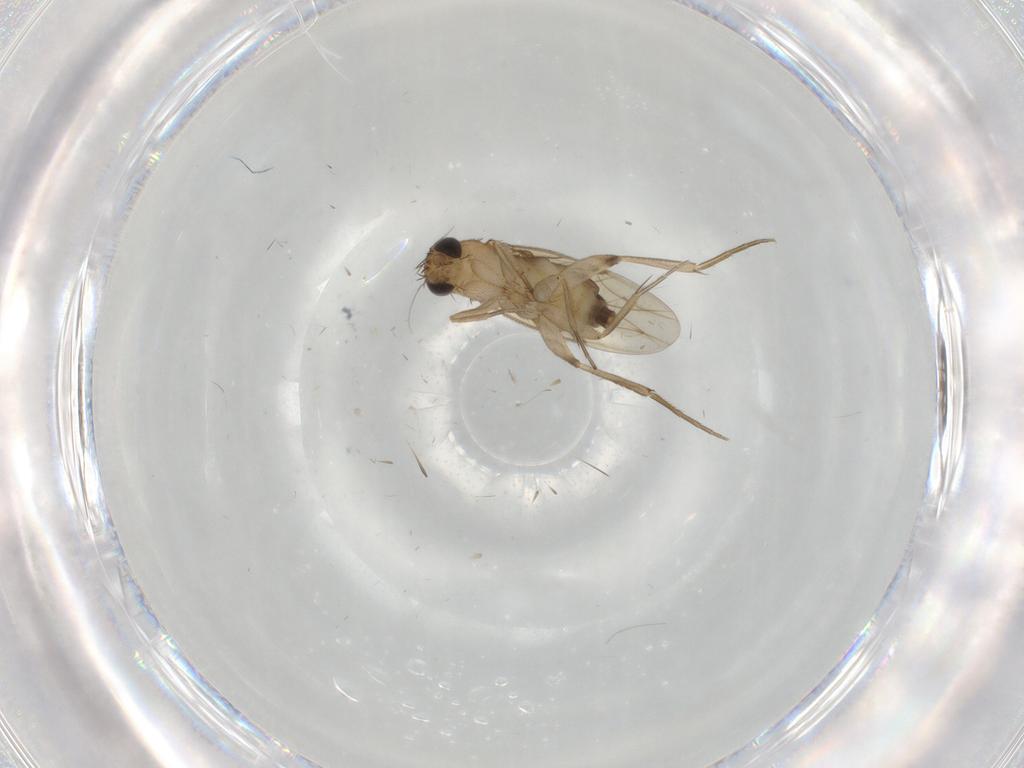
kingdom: Animalia
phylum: Arthropoda
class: Insecta
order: Diptera
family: Phoridae
